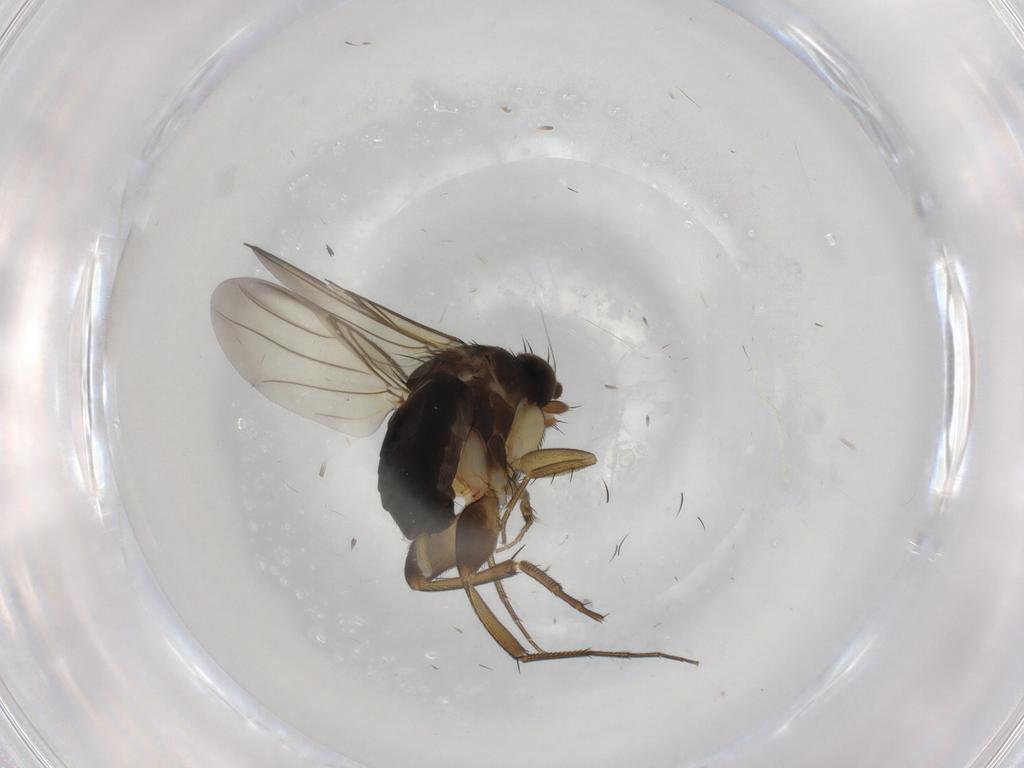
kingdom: Animalia
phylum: Arthropoda
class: Insecta
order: Diptera
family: Phoridae
